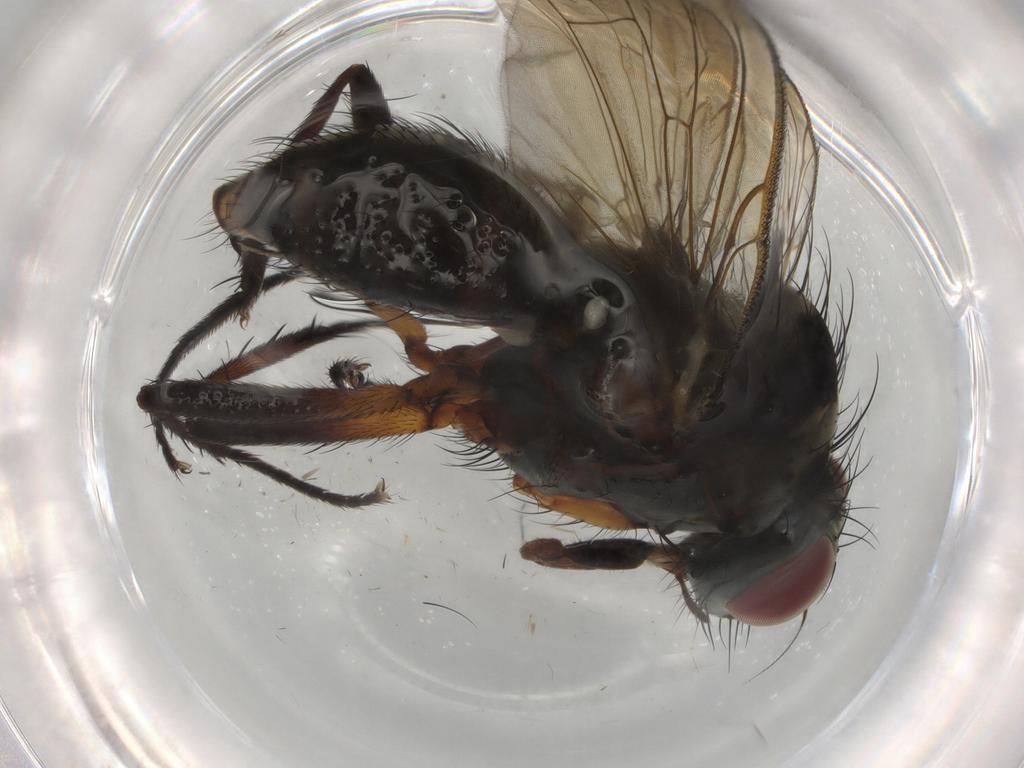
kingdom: Animalia
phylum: Arthropoda
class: Insecta
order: Diptera
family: Anthomyiidae
